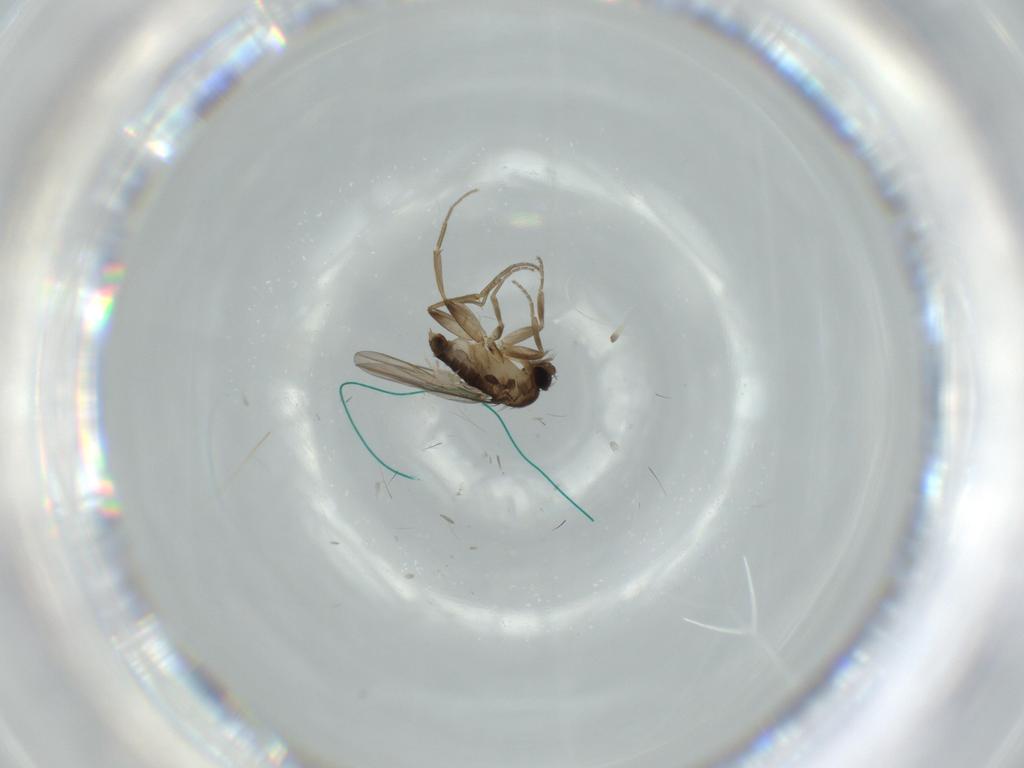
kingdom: Animalia
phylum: Arthropoda
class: Insecta
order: Diptera
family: Phoridae
